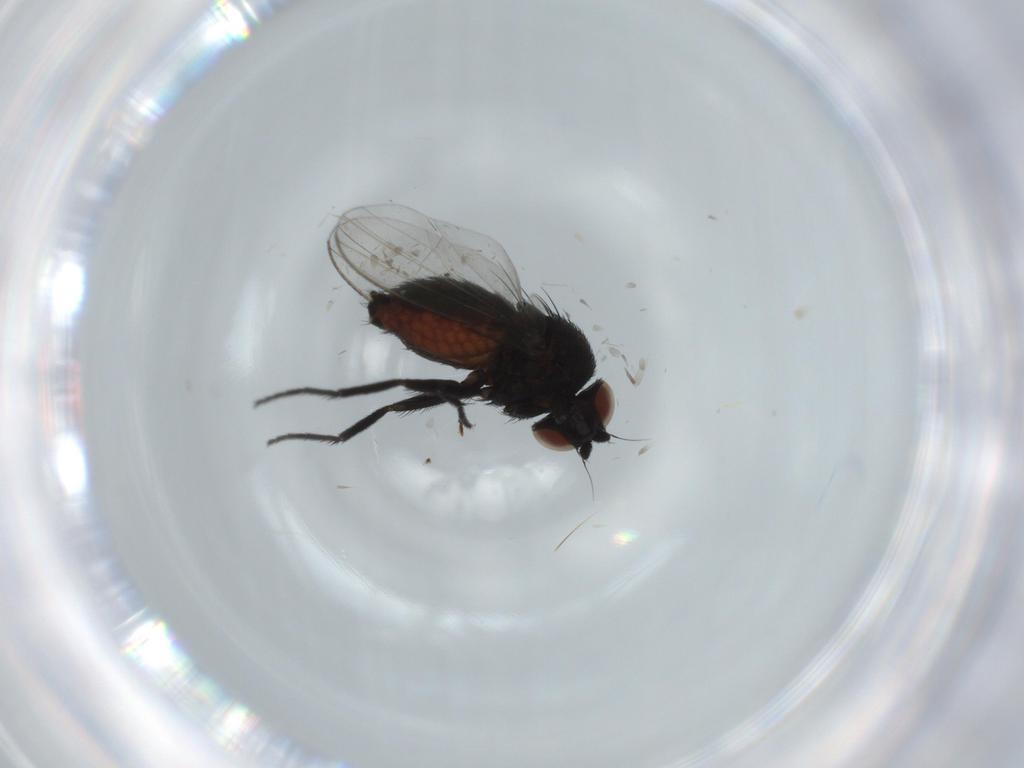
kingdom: Animalia
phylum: Arthropoda
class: Insecta
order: Diptera
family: Milichiidae
